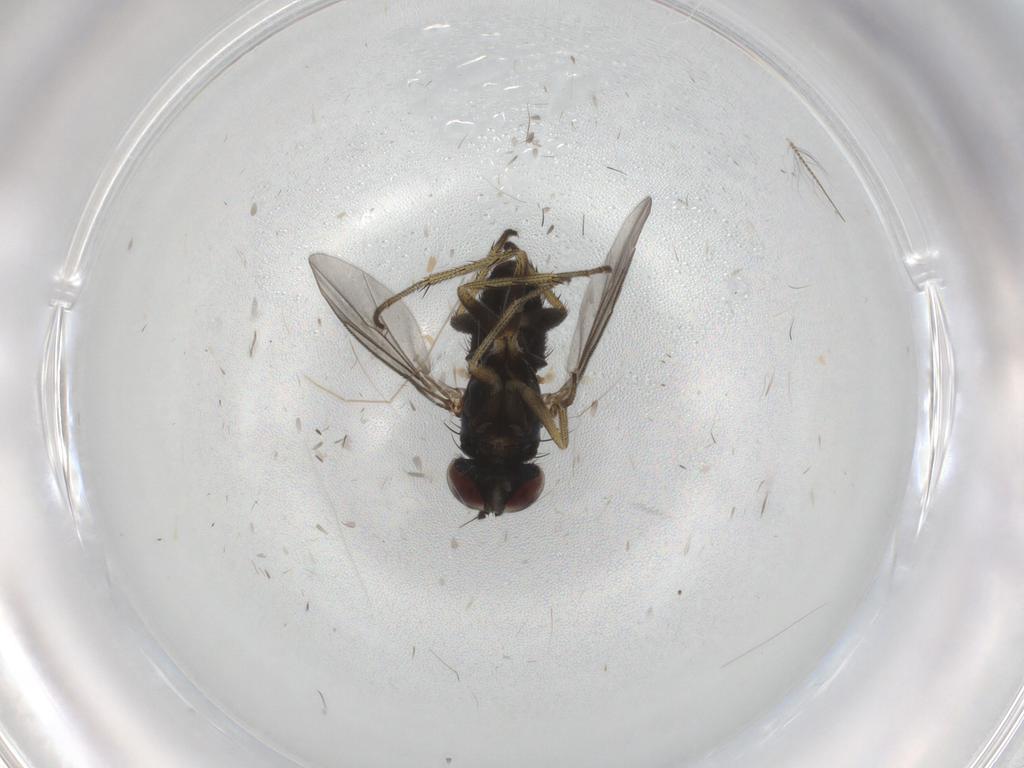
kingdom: Animalia
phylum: Arthropoda
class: Insecta
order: Diptera
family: Dolichopodidae
